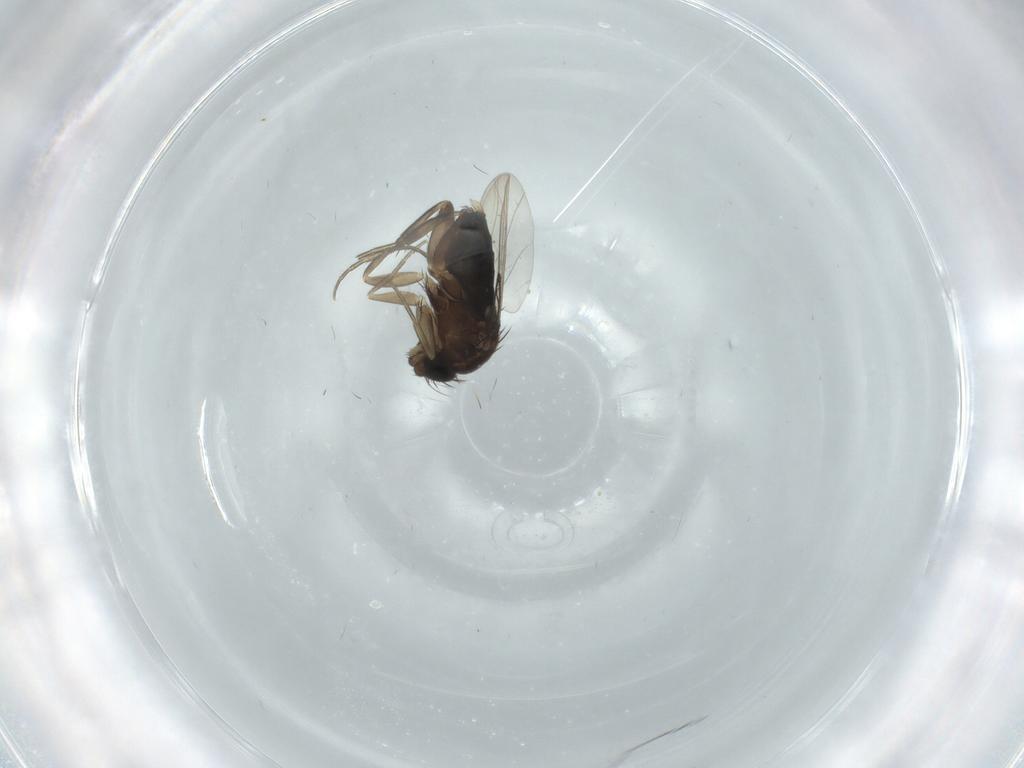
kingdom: Animalia
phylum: Arthropoda
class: Insecta
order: Diptera
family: Phoridae
